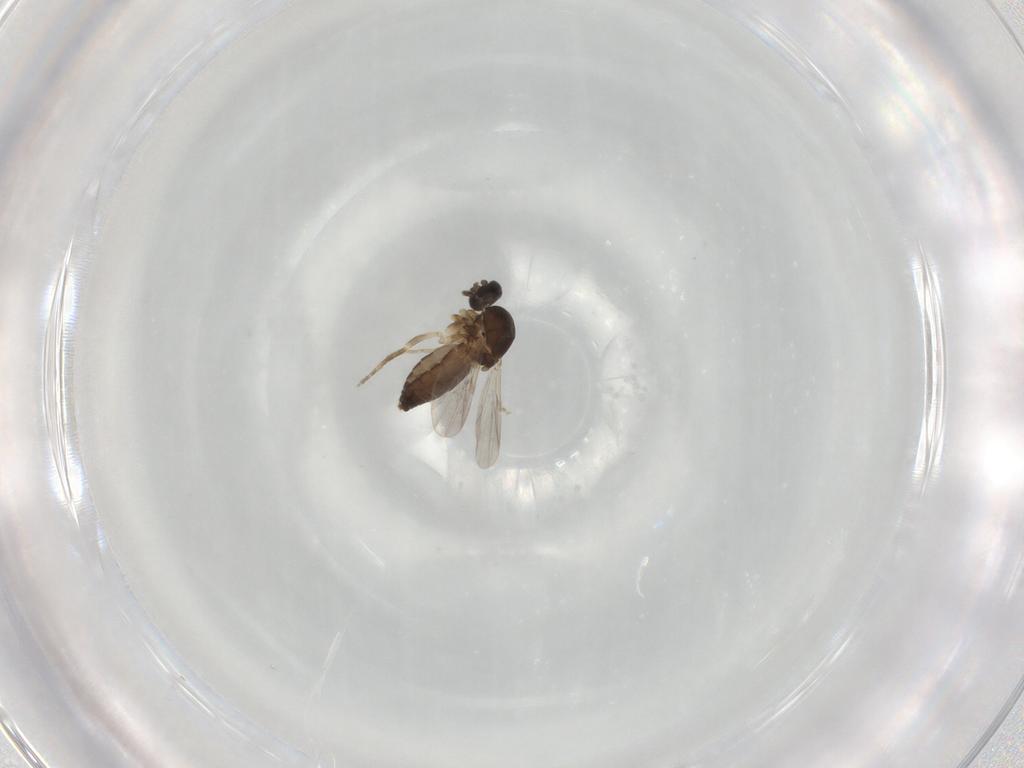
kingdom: Animalia
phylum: Arthropoda
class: Insecta
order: Diptera
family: Ceratopogonidae
